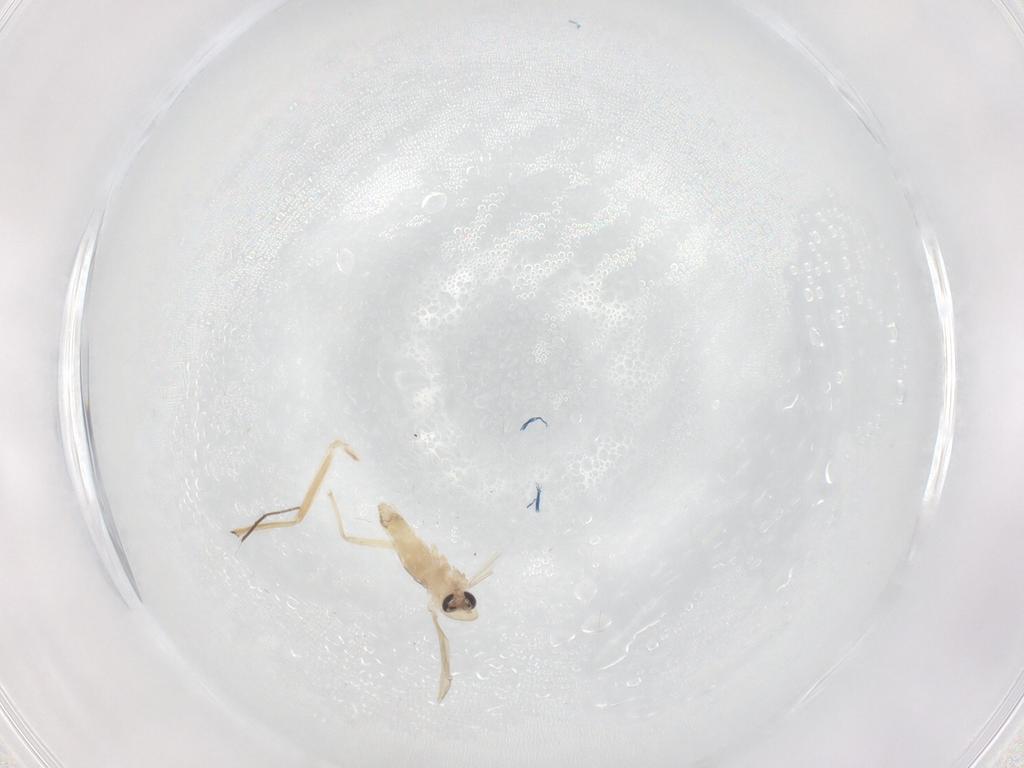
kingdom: Animalia
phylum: Arthropoda
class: Insecta
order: Diptera
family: Chironomidae
